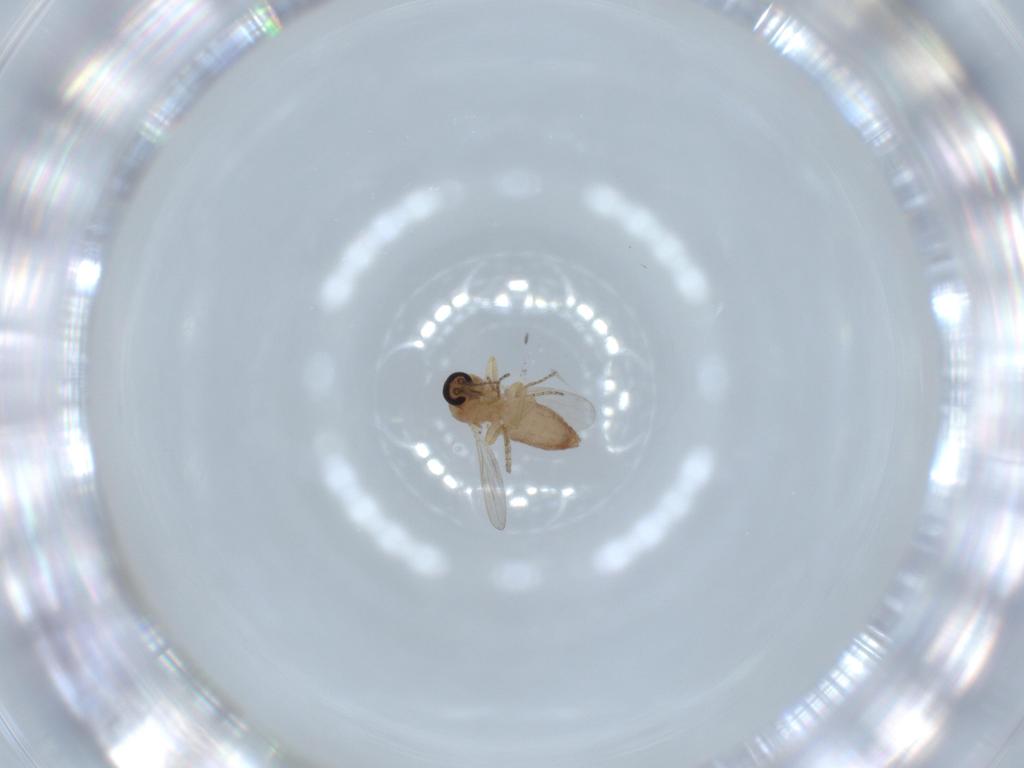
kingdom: Animalia
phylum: Arthropoda
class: Insecta
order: Diptera
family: Ceratopogonidae
